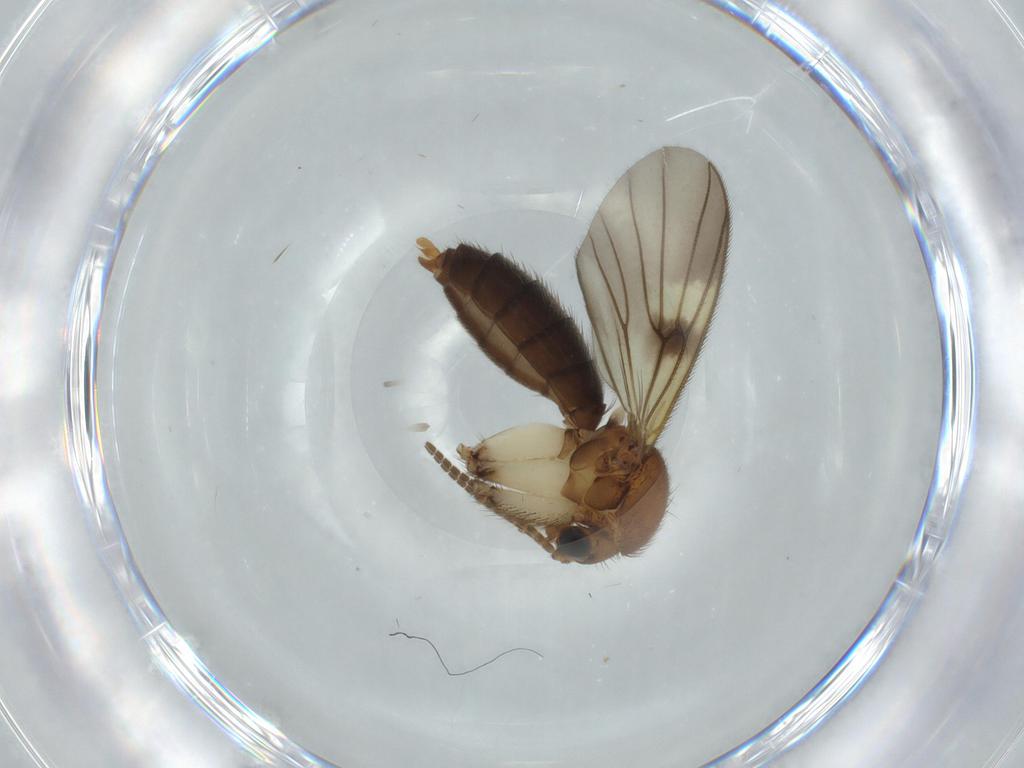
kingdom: Animalia
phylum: Arthropoda
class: Insecta
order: Diptera
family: Mycetophilidae
